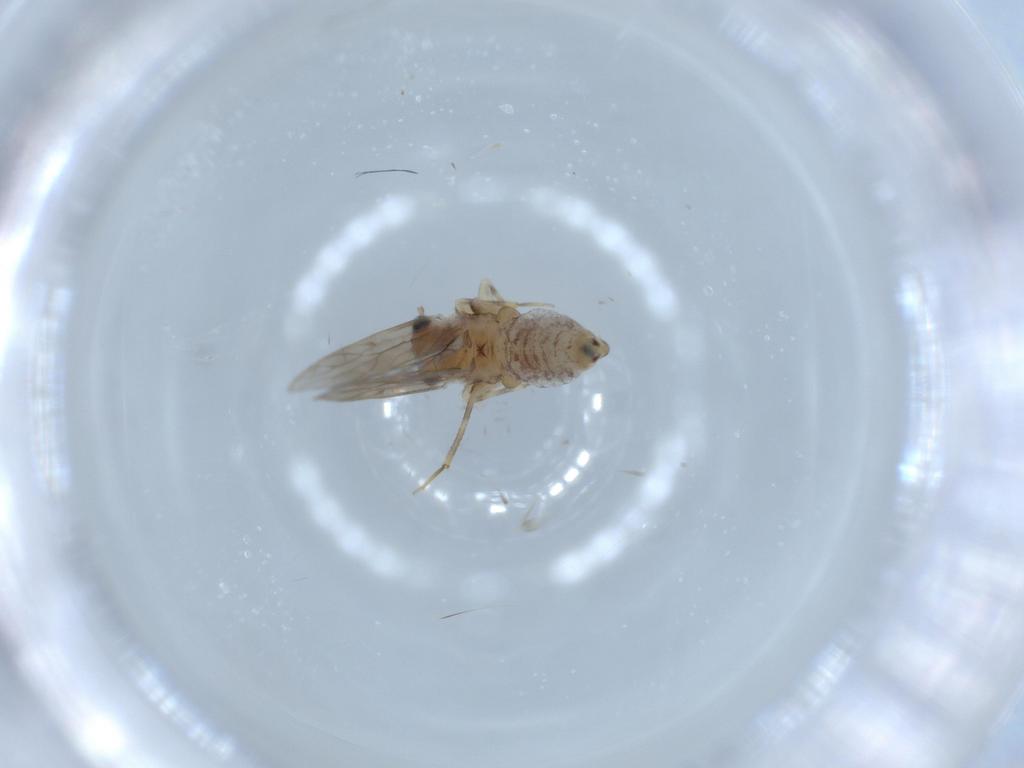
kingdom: Animalia
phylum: Arthropoda
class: Insecta
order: Psocodea
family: Lepidopsocidae
